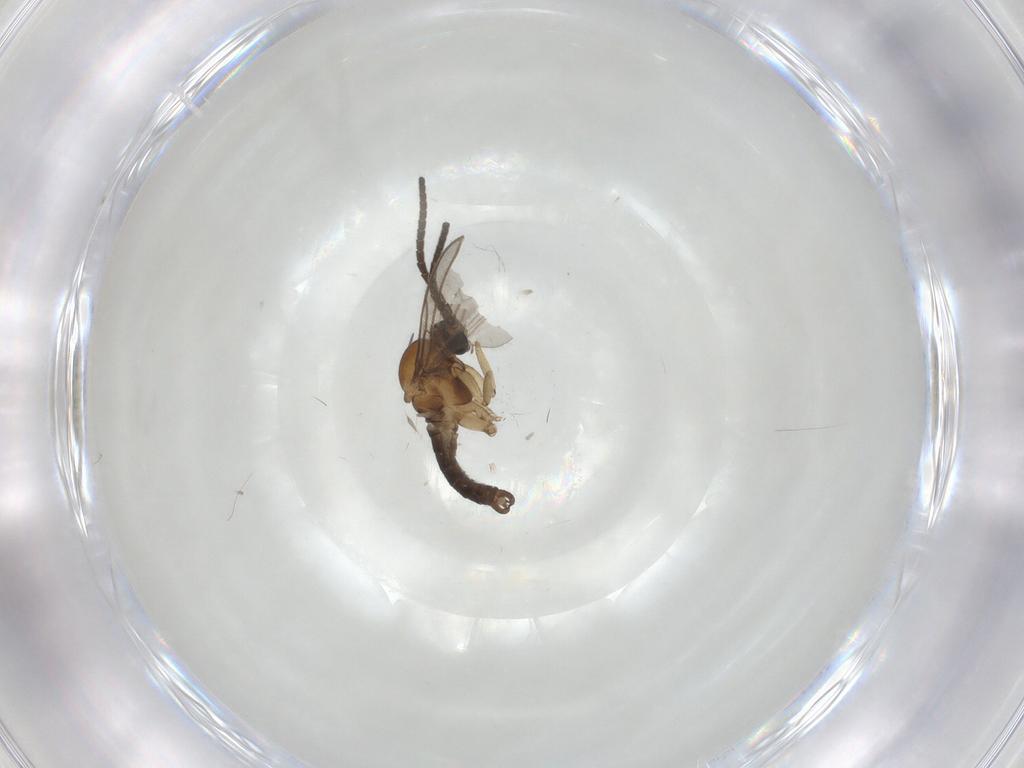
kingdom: Animalia
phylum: Arthropoda
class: Insecta
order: Diptera
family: Sciaridae
